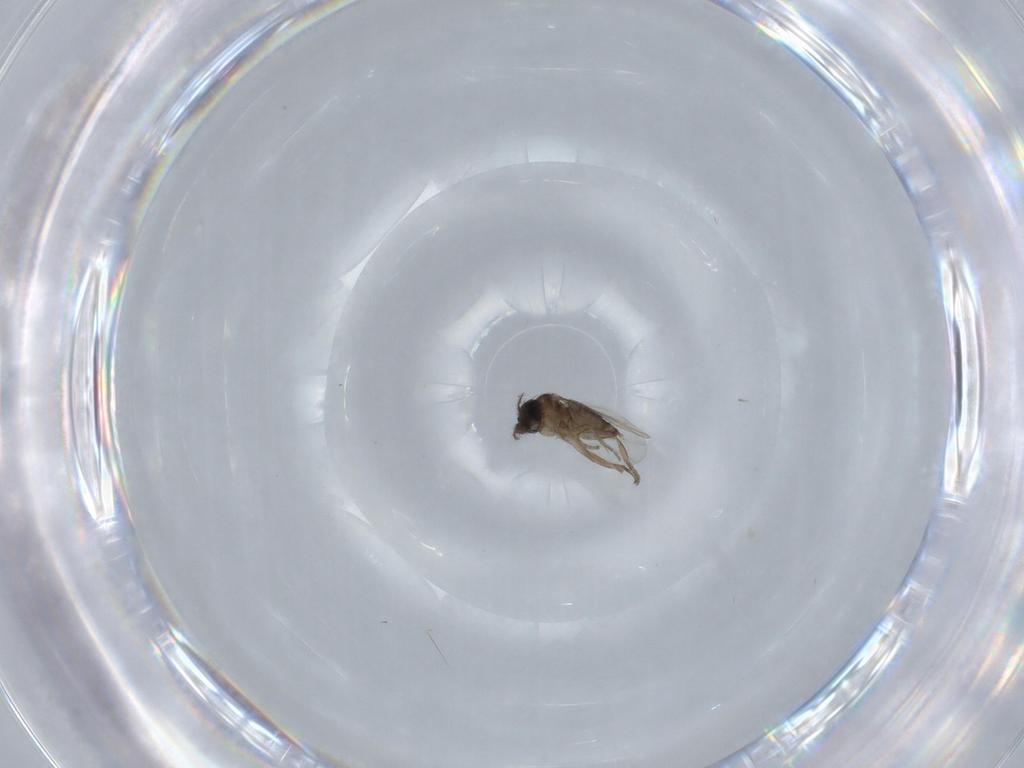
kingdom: Animalia
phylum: Arthropoda
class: Insecta
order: Diptera
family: Phoridae
